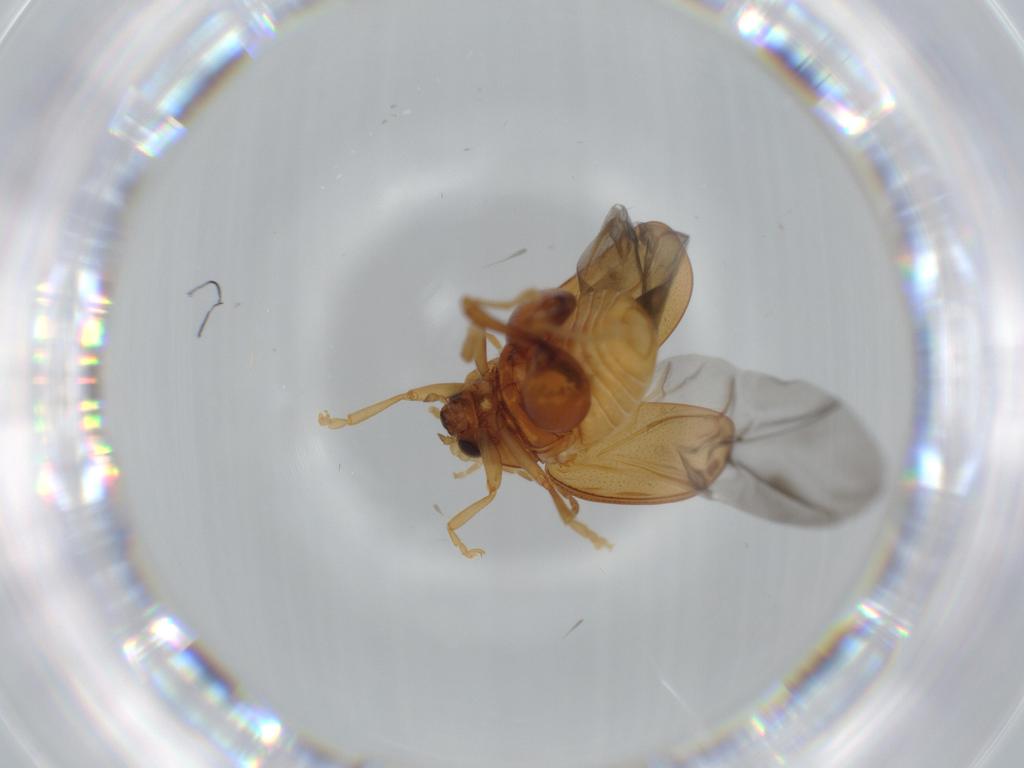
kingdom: Animalia
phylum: Arthropoda
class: Insecta
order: Coleoptera
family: Chrysomelidae
